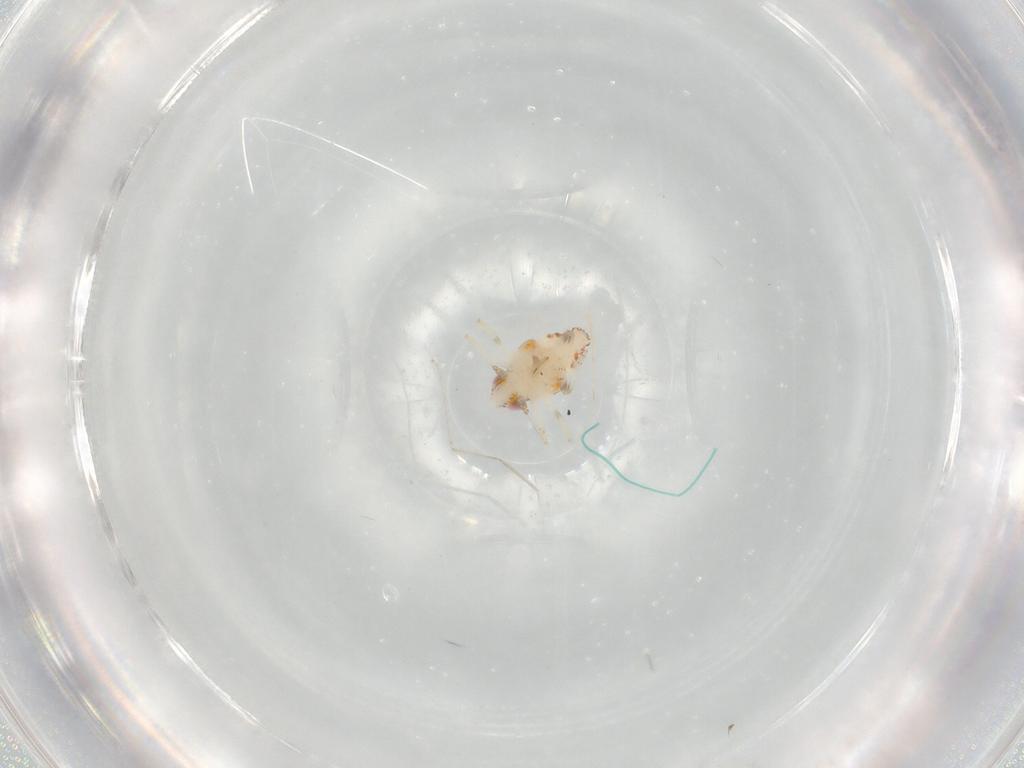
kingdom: Animalia
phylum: Arthropoda
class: Insecta
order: Hemiptera
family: Nogodinidae
